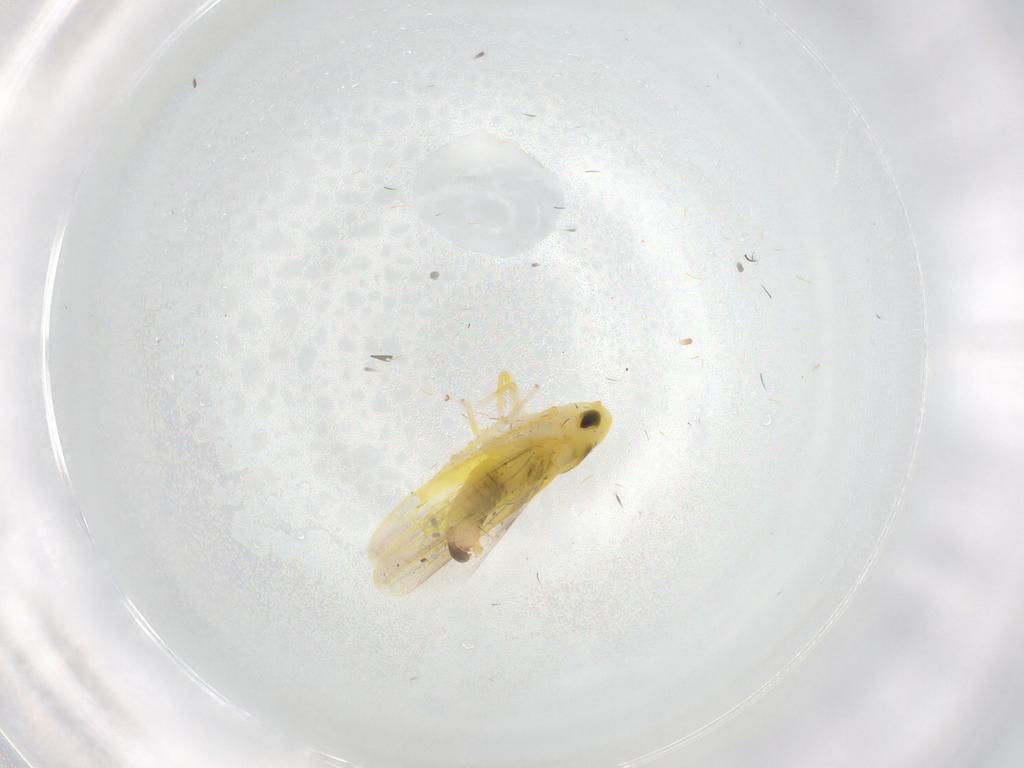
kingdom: Animalia
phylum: Arthropoda
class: Insecta
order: Hemiptera
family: Cicadellidae
